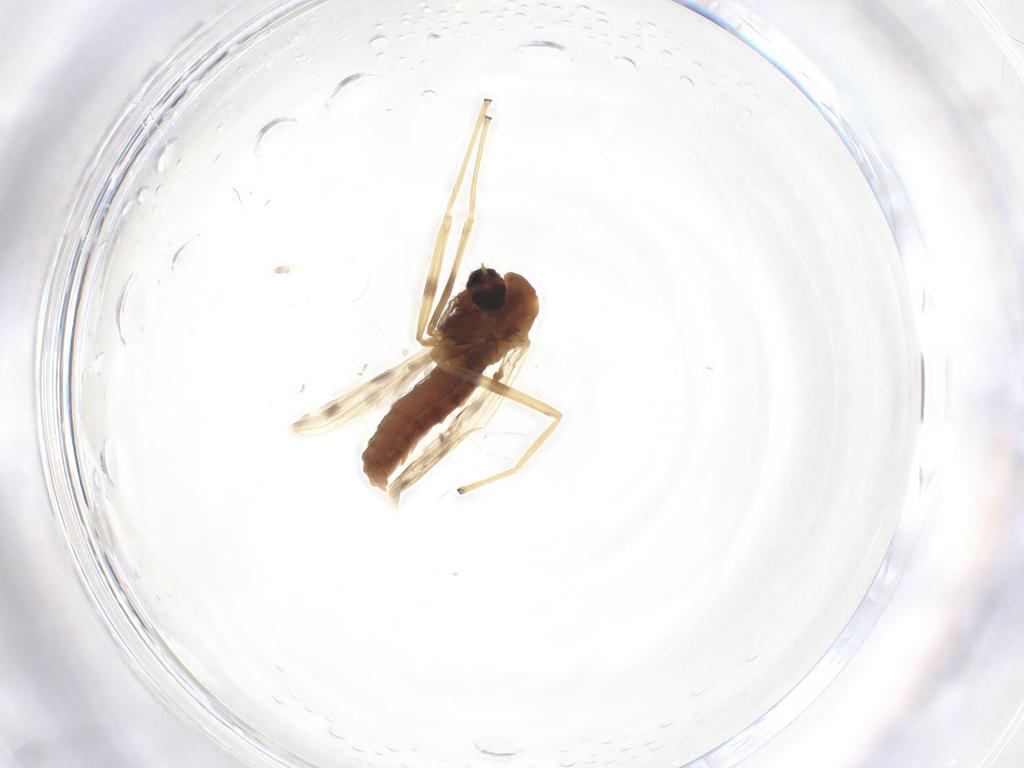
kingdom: Animalia
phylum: Arthropoda
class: Insecta
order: Diptera
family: Chironomidae
